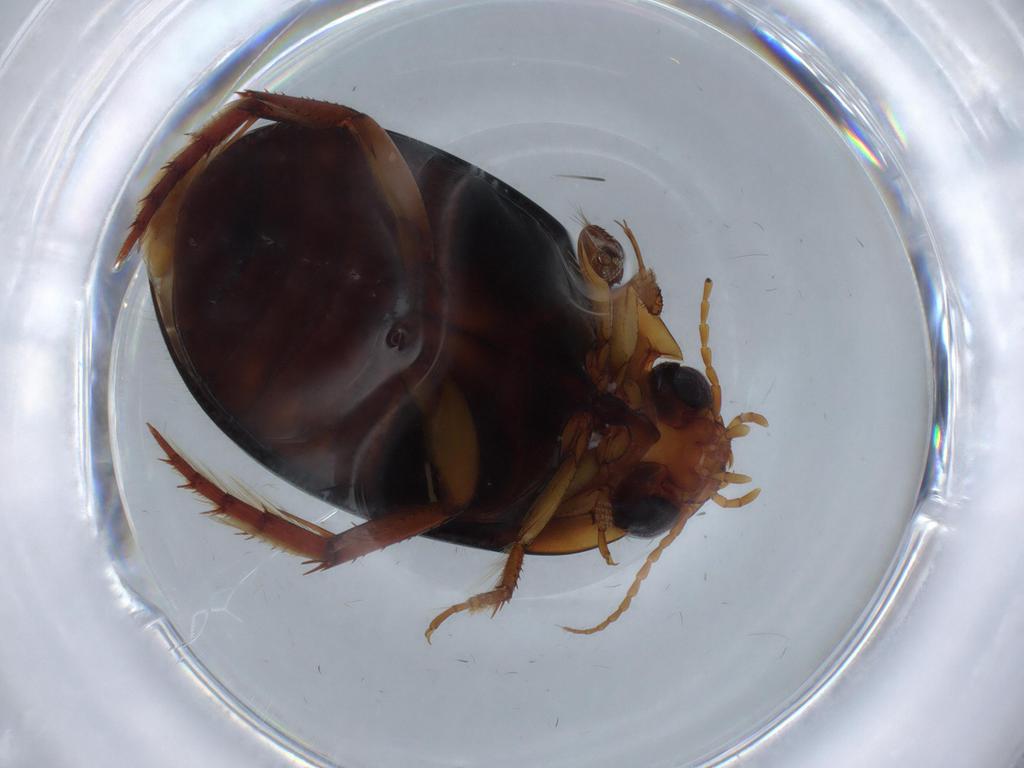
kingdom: Animalia
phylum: Arthropoda
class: Insecta
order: Coleoptera
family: Dytiscidae
